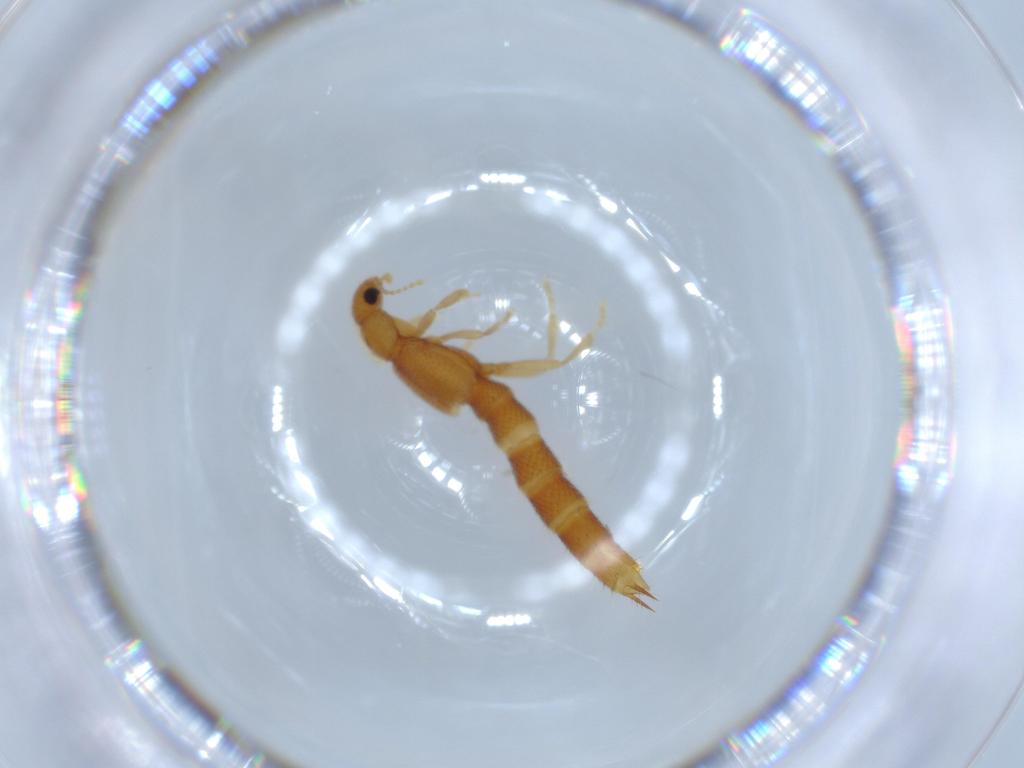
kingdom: Animalia
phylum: Arthropoda
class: Insecta
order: Coleoptera
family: Staphylinidae
